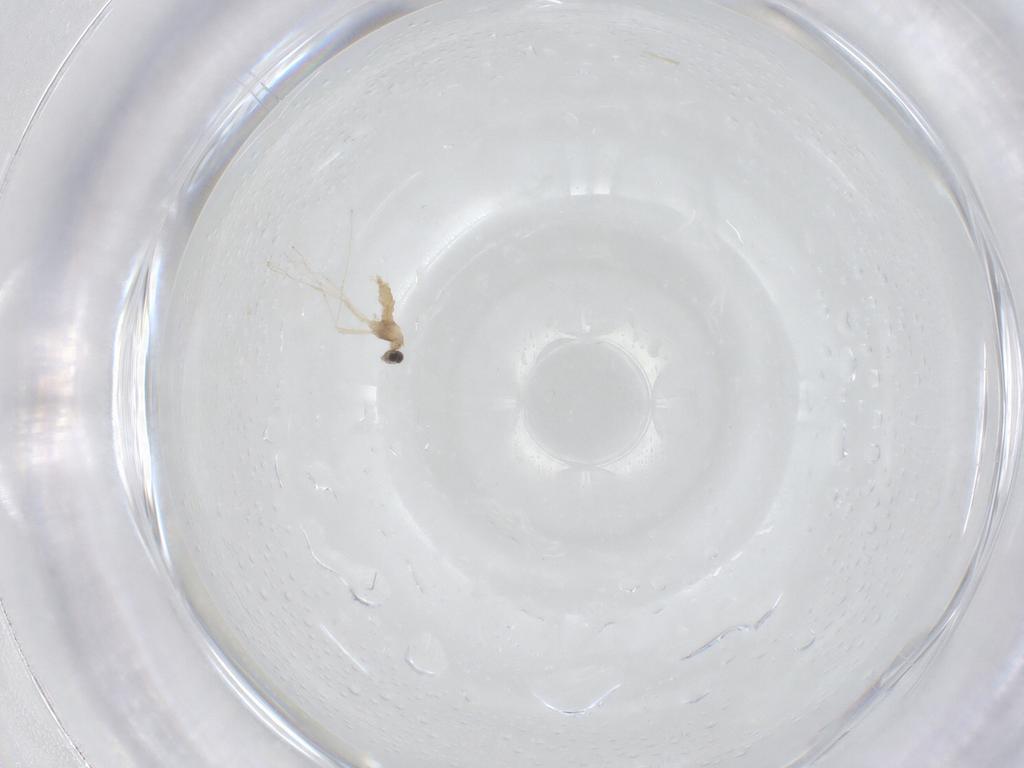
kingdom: Animalia
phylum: Arthropoda
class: Insecta
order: Diptera
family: Cecidomyiidae
